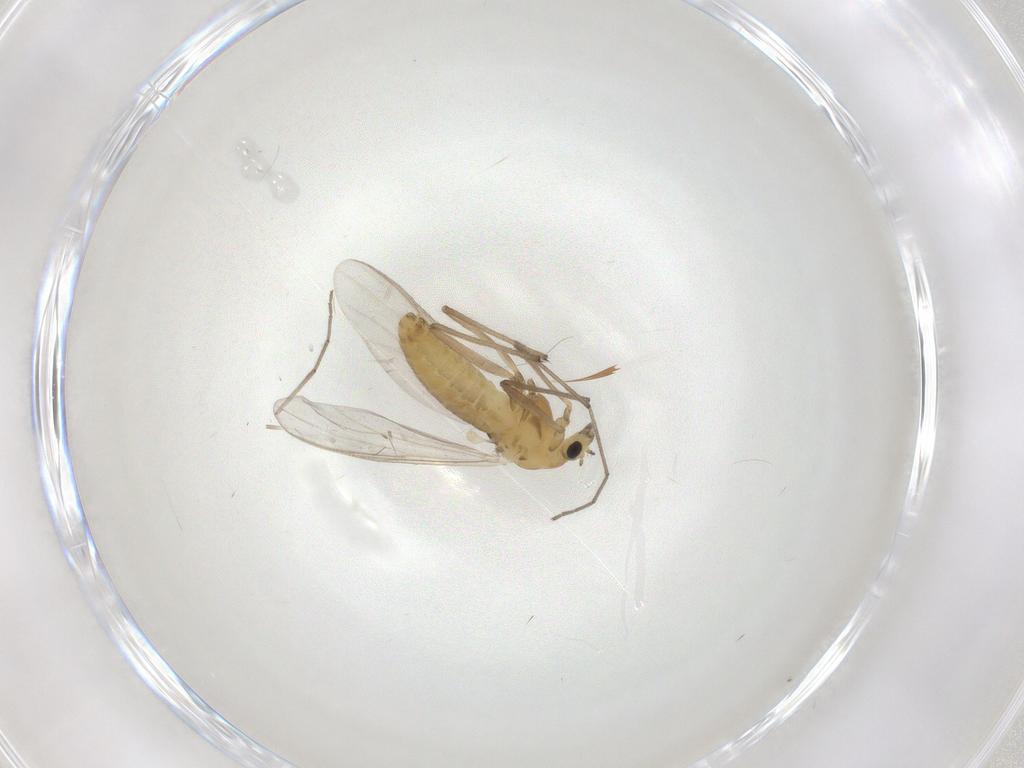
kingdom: Animalia
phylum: Arthropoda
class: Insecta
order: Diptera
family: Chironomidae
